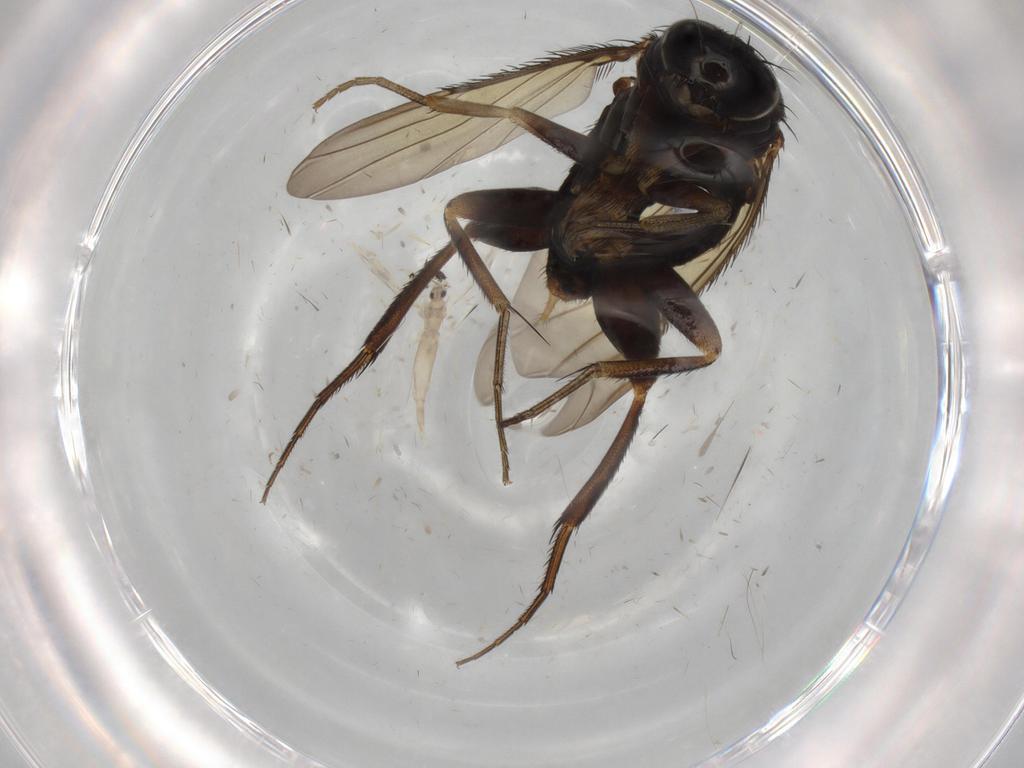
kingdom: Animalia
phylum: Arthropoda
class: Insecta
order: Diptera
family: Cecidomyiidae
